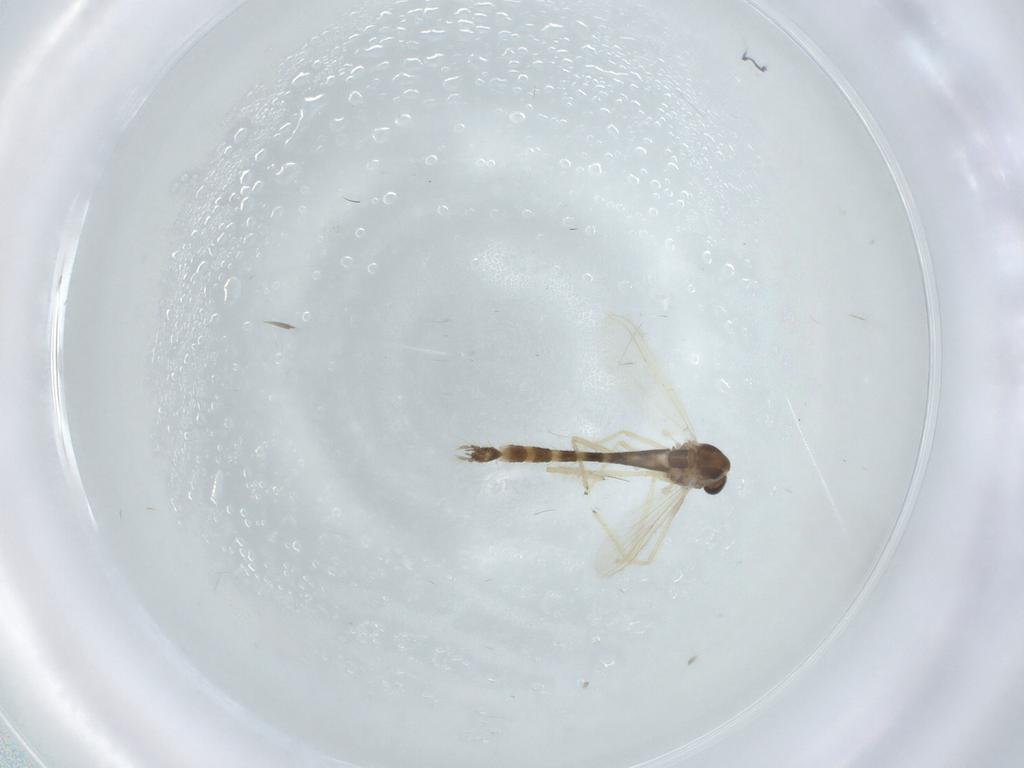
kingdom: Animalia
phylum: Arthropoda
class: Insecta
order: Diptera
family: Chironomidae
